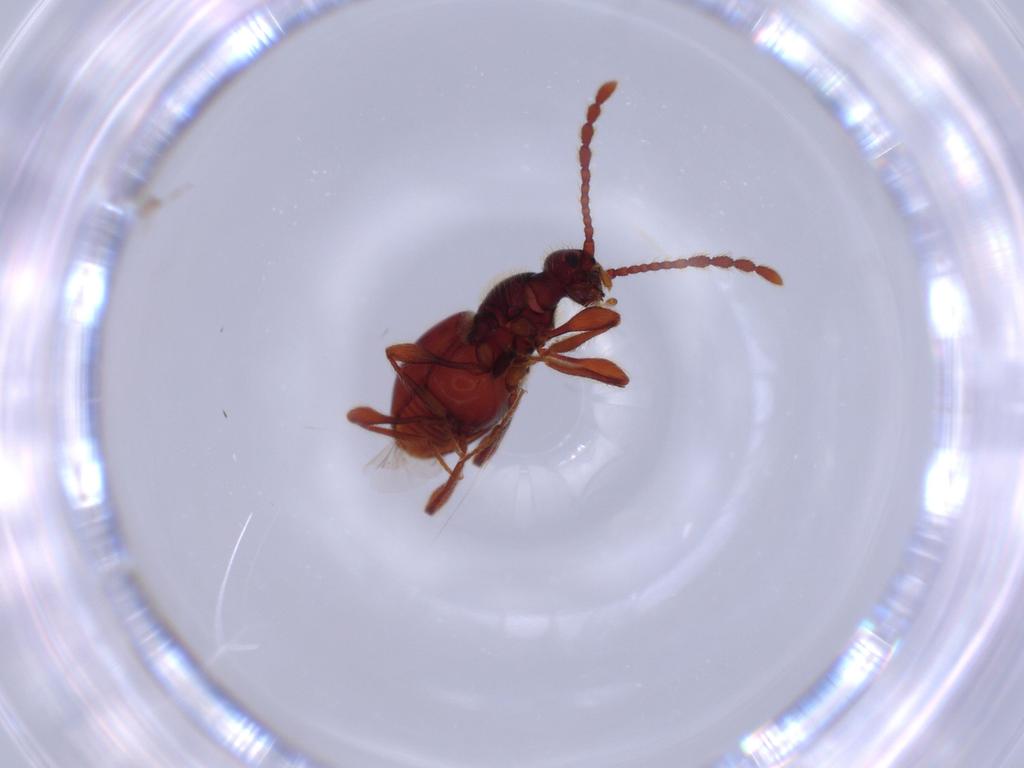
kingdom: Animalia
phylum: Arthropoda
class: Insecta
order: Coleoptera
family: Staphylinidae
